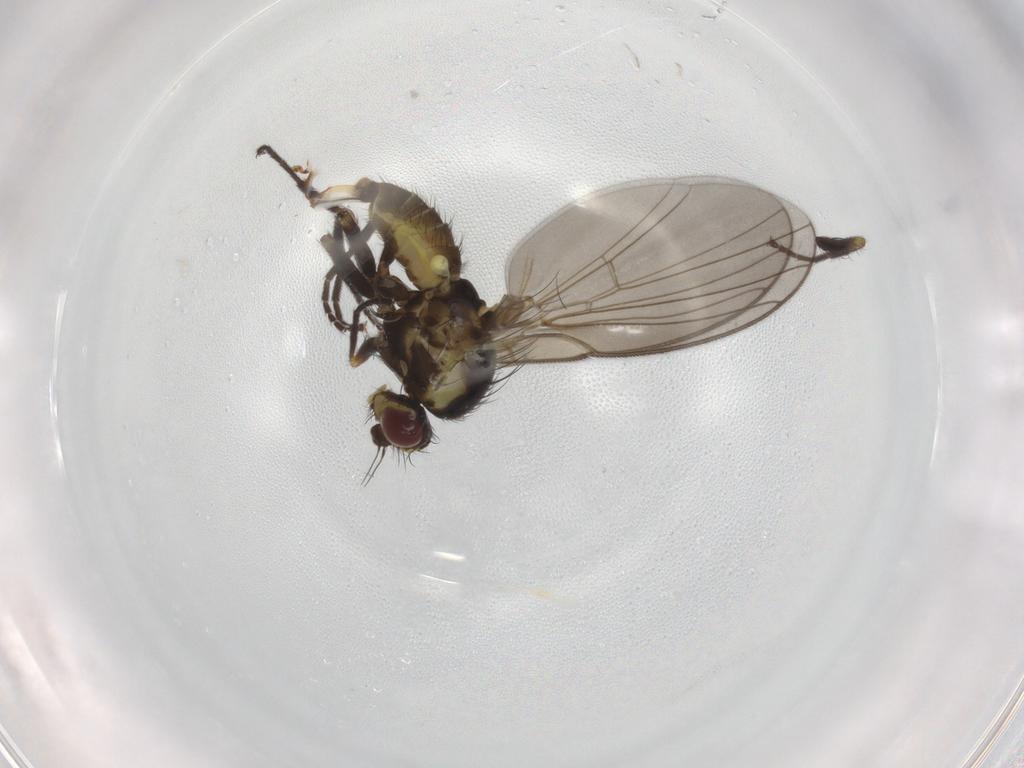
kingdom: Animalia
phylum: Arthropoda
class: Insecta
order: Diptera
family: Agromyzidae
